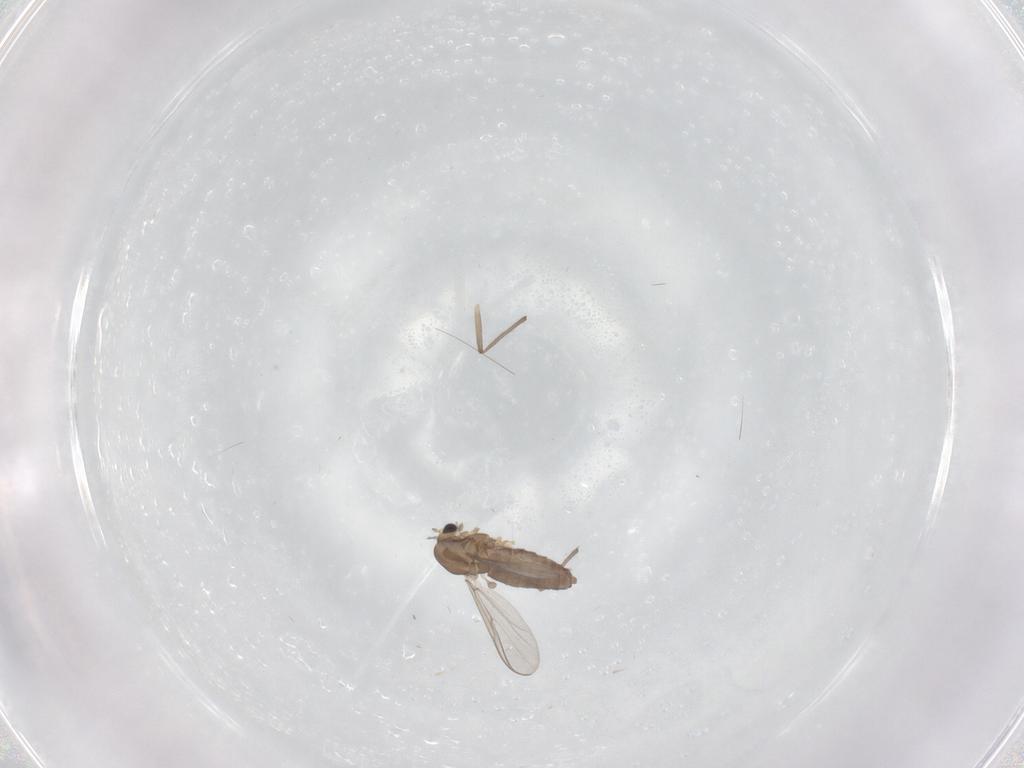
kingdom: Animalia
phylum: Arthropoda
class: Insecta
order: Diptera
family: Chironomidae
